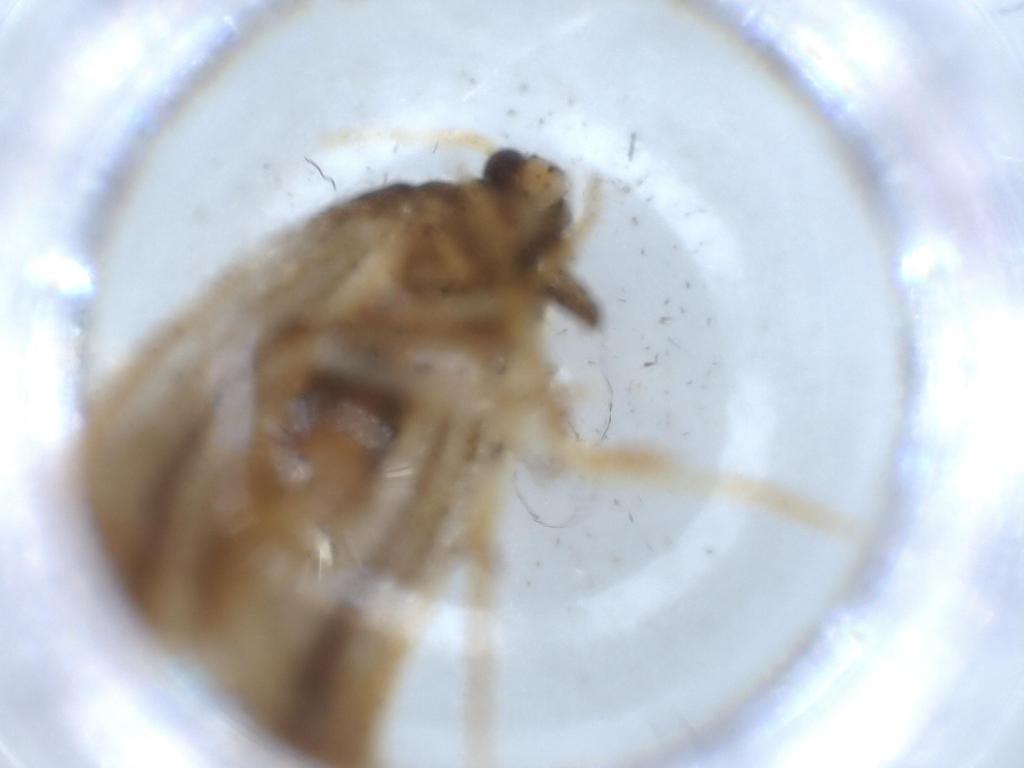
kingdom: Animalia
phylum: Arthropoda
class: Insecta
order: Lepidoptera
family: Lecithoceridae
